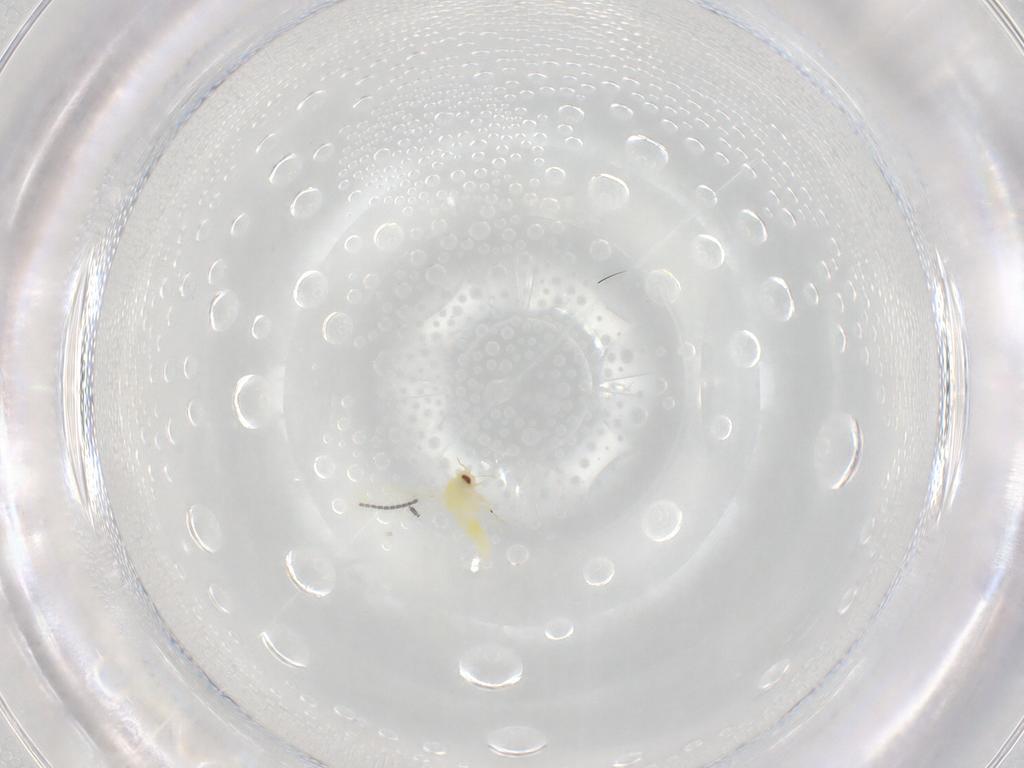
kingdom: Animalia
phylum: Arthropoda
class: Insecta
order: Hemiptera
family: Aleyrodidae
